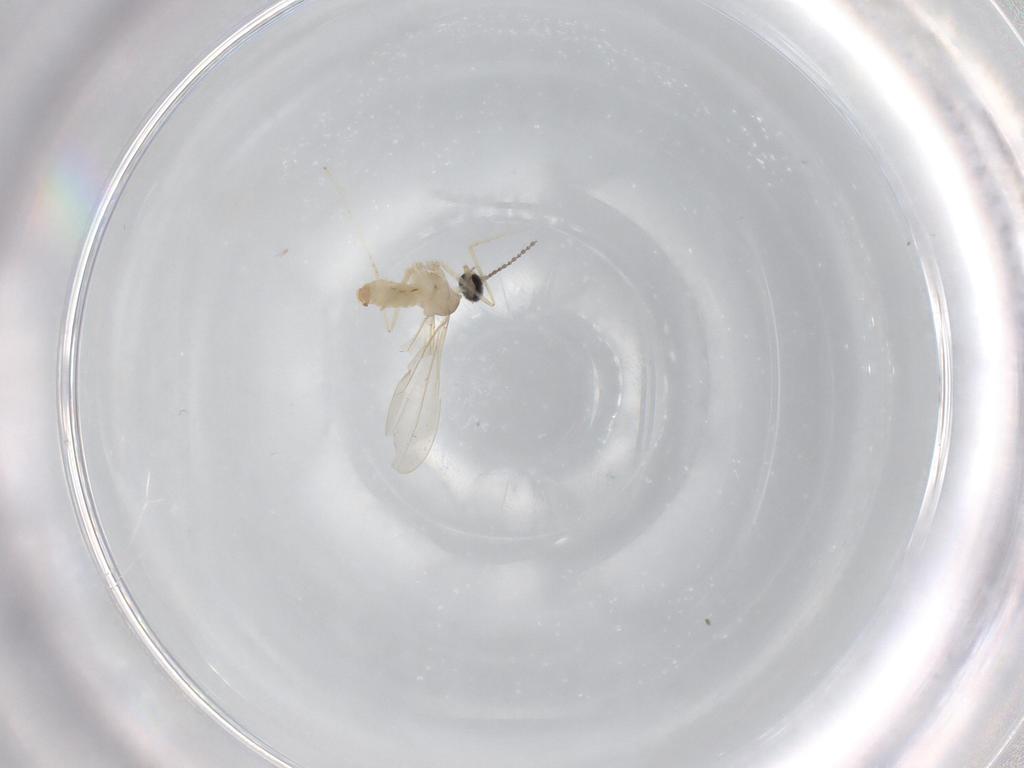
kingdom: Animalia
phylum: Arthropoda
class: Insecta
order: Diptera
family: Cecidomyiidae
